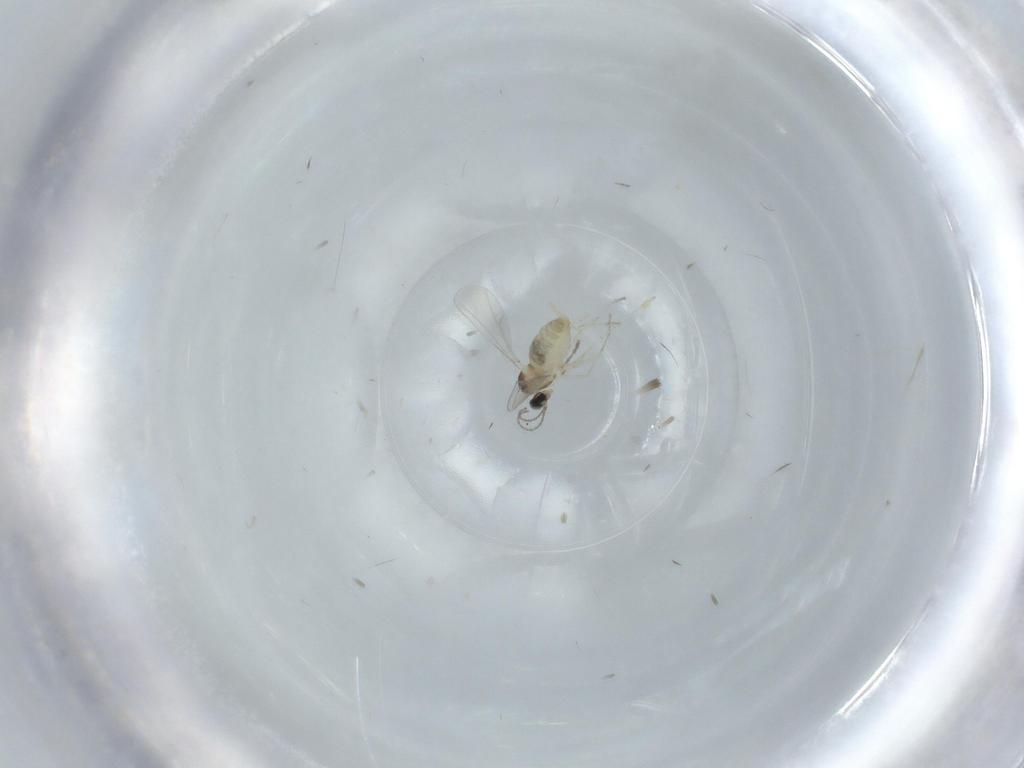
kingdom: Animalia
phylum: Arthropoda
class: Insecta
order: Diptera
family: Sphaeroceridae
